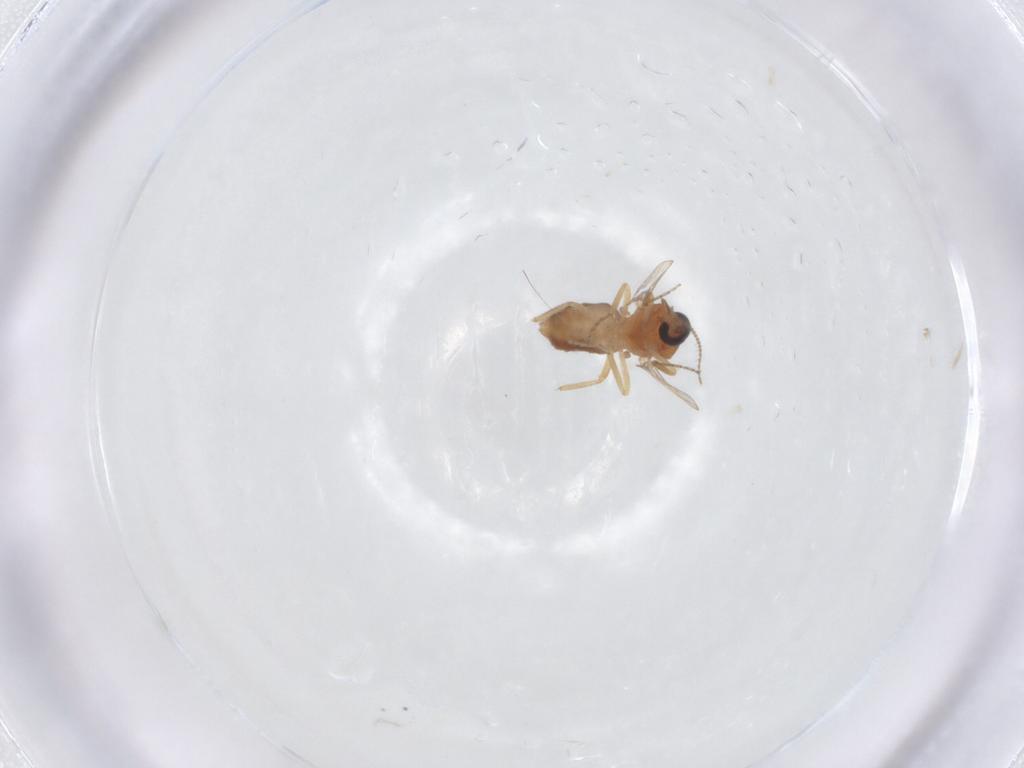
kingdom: Animalia
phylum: Arthropoda
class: Insecta
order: Diptera
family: Ceratopogonidae
